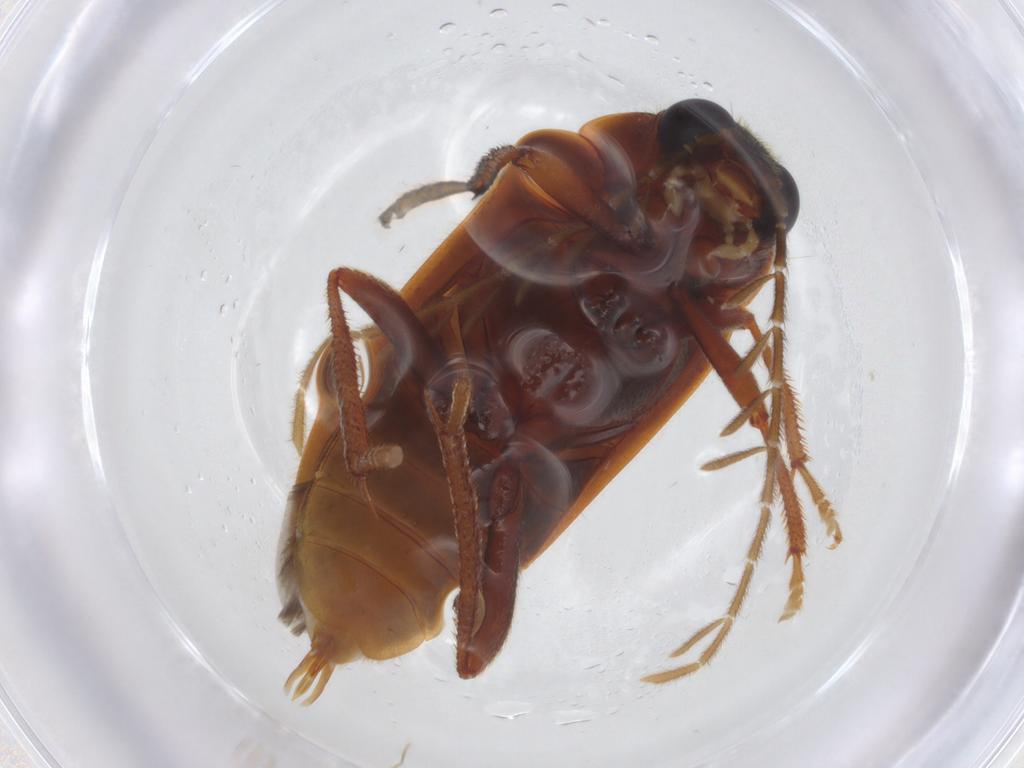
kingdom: Animalia
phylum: Arthropoda
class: Insecta
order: Coleoptera
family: Ptilodactylidae
